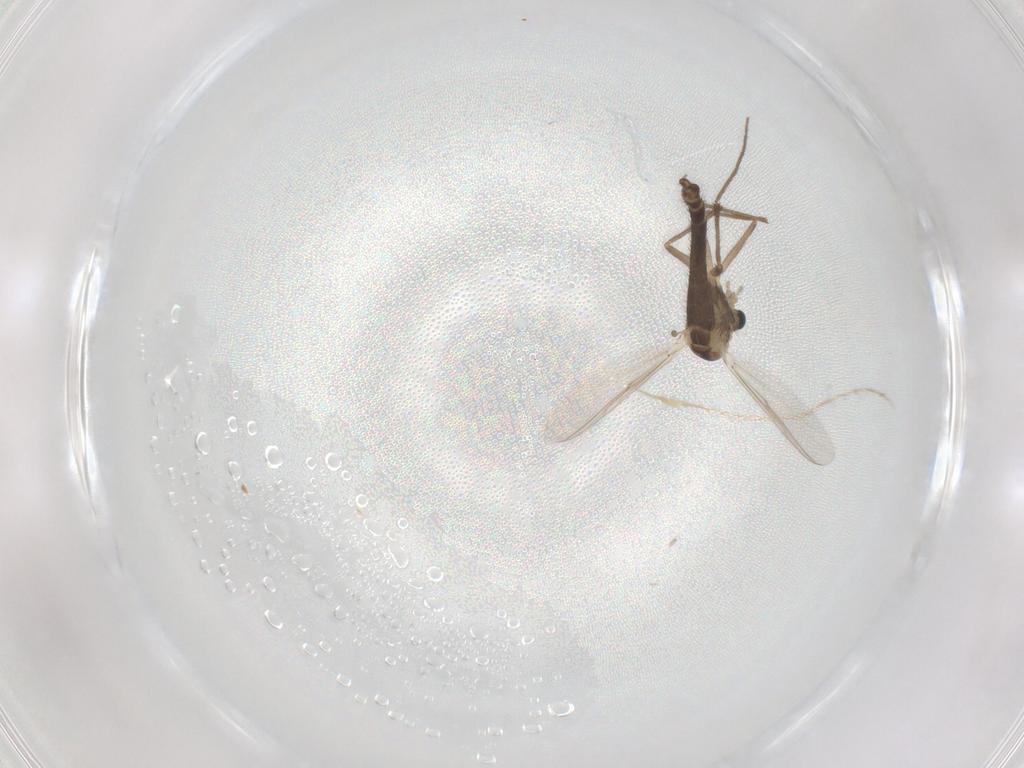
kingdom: Animalia
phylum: Arthropoda
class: Insecta
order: Diptera
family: Chironomidae
